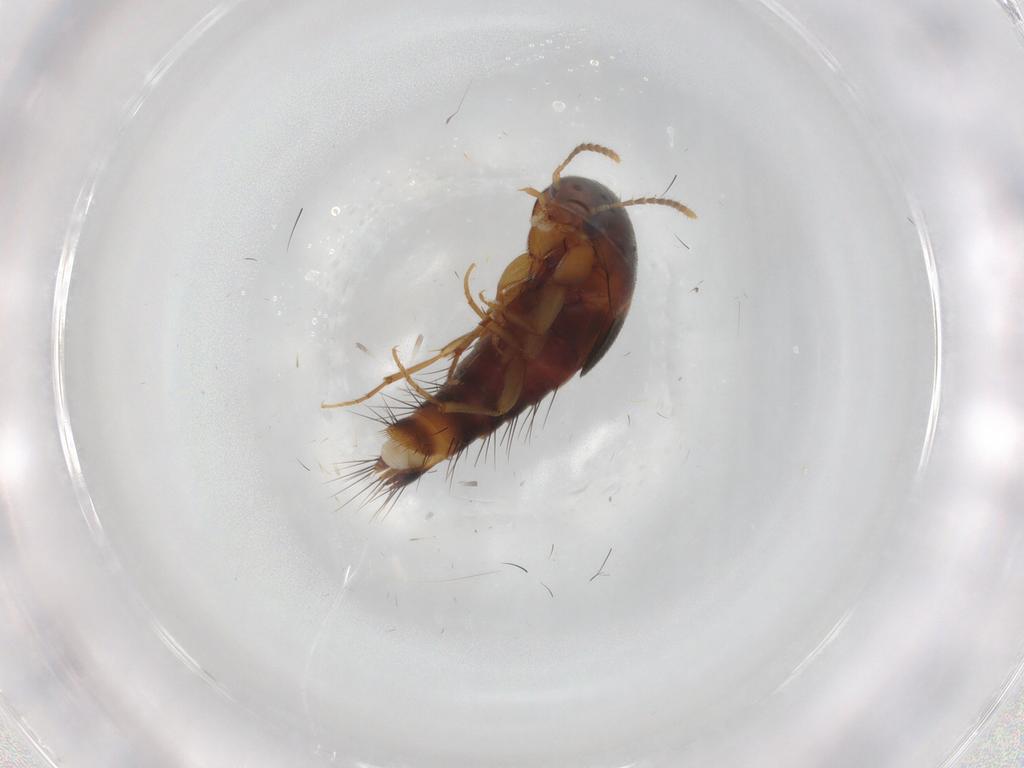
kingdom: Animalia
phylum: Arthropoda
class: Insecta
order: Coleoptera
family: Staphylinidae
